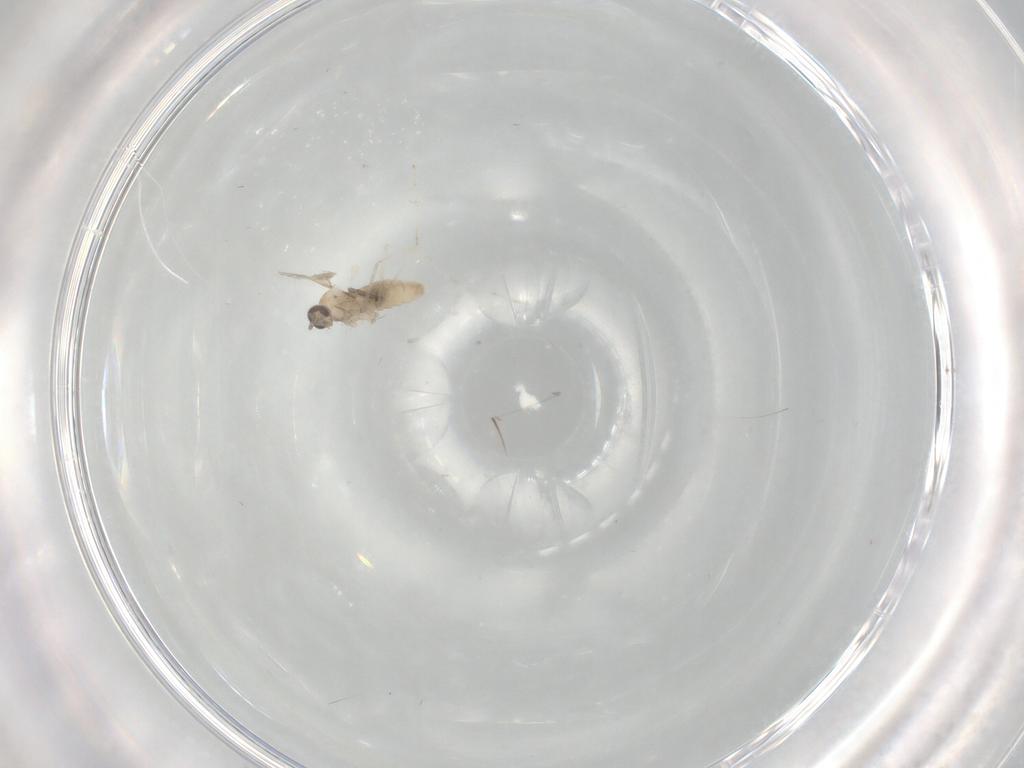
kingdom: Animalia
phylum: Arthropoda
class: Insecta
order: Diptera
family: Cecidomyiidae
